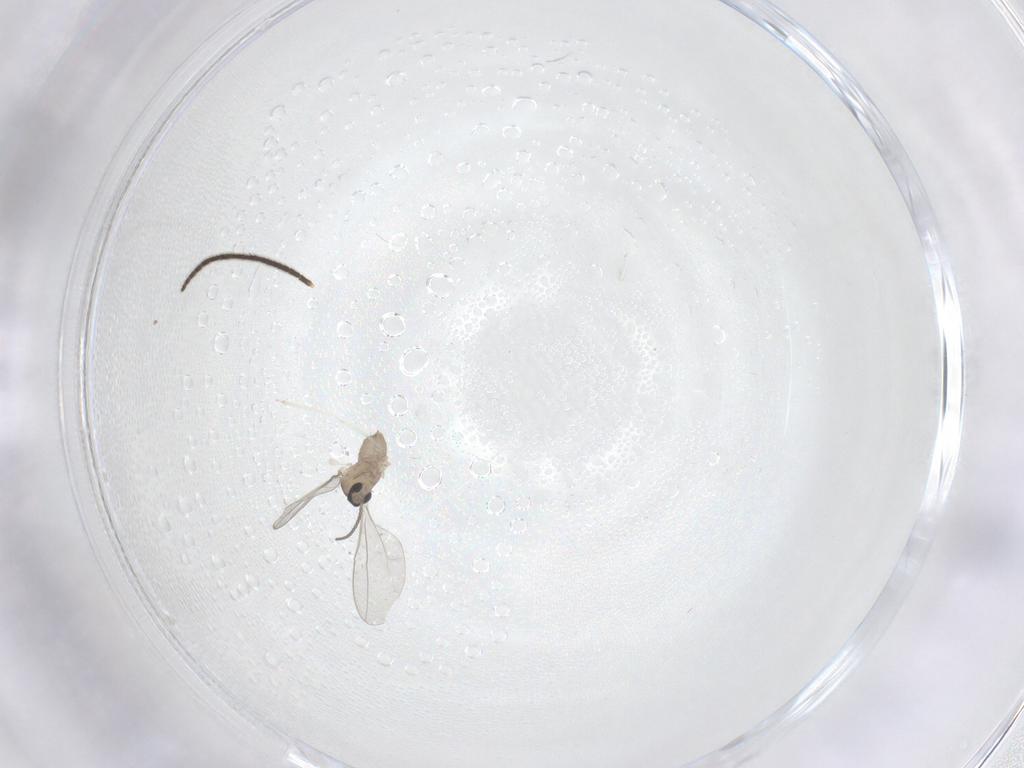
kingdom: Animalia
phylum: Arthropoda
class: Insecta
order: Diptera
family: Cecidomyiidae
